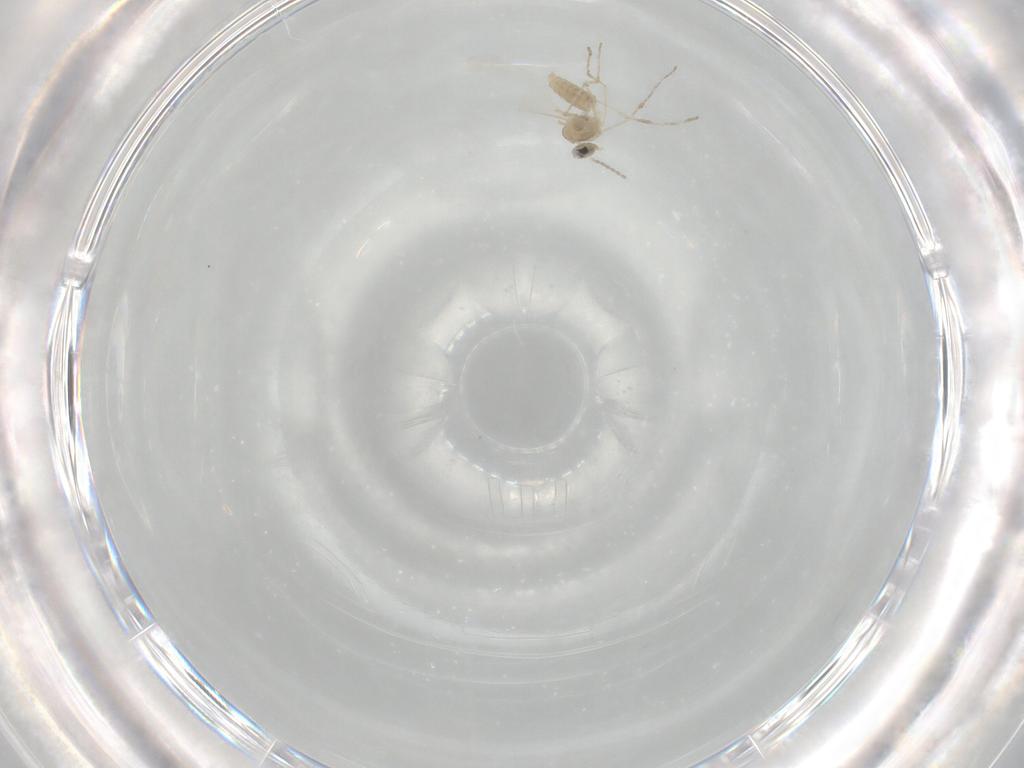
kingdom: Animalia
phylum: Arthropoda
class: Insecta
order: Diptera
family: Cecidomyiidae
